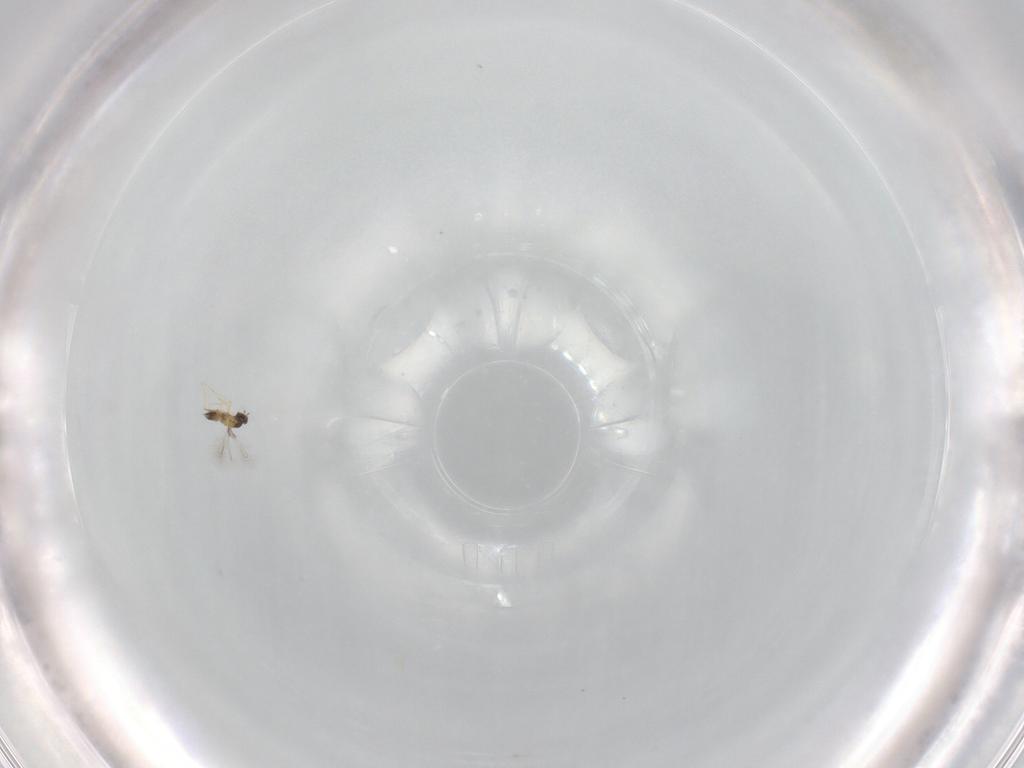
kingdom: Animalia
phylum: Arthropoda
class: Insecta
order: Hymenoptera
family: Mymaridae
